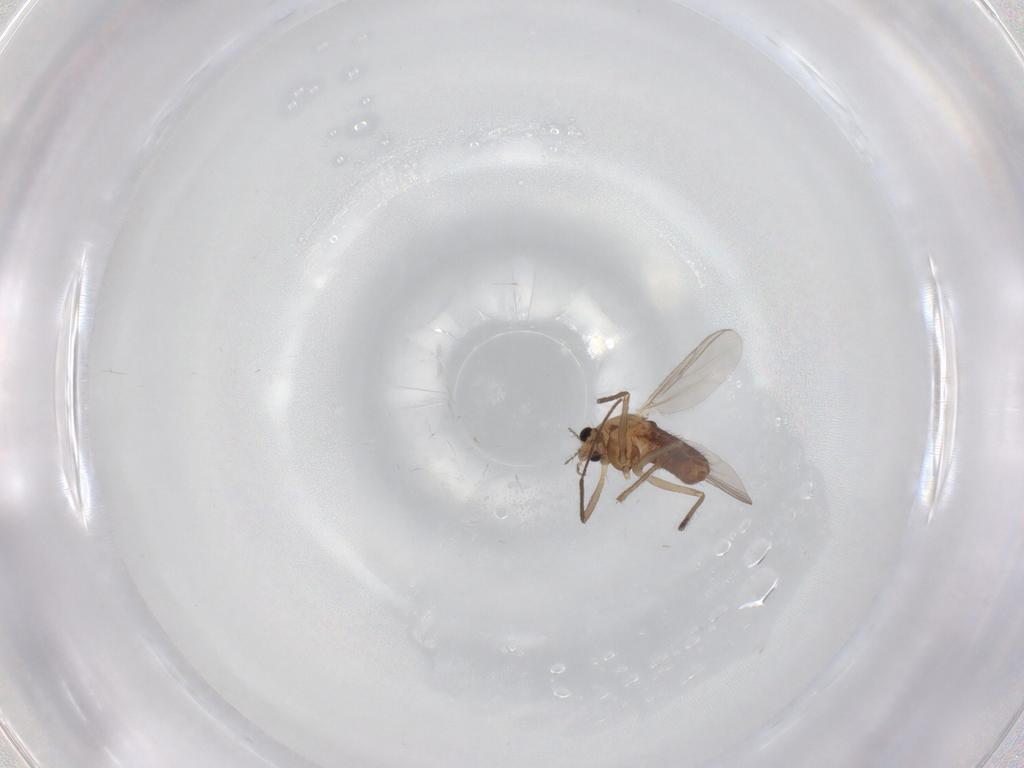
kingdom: Animalia
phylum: Arthropoda
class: Insecta
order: Diptera
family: Chironomidae
